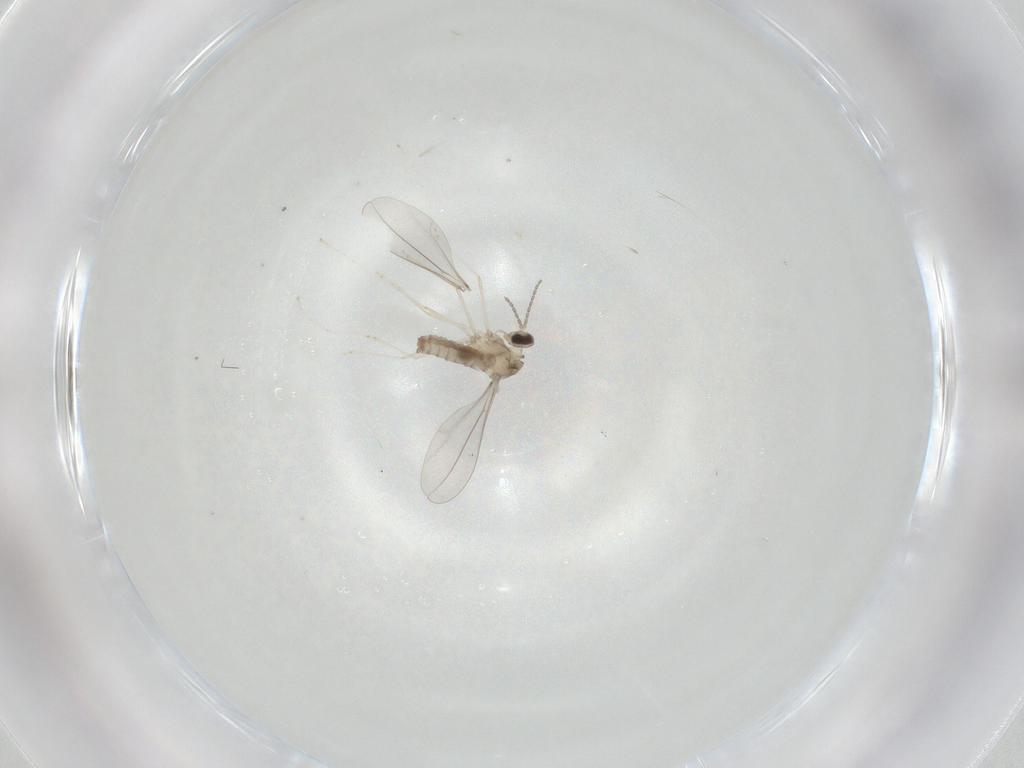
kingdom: Animalia
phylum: Arthropoda
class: Insecta
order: Diptera
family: Cecidomyiidae
